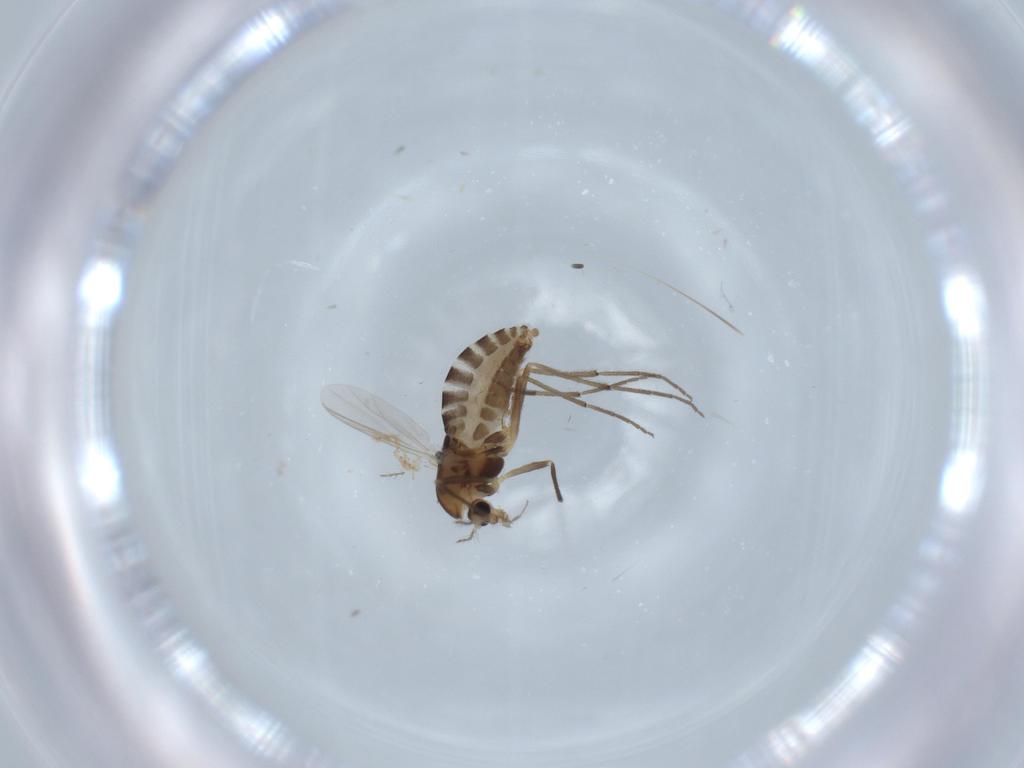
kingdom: Animalia
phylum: Arthropoda
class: Insecta
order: Diptera
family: Chironomidae
